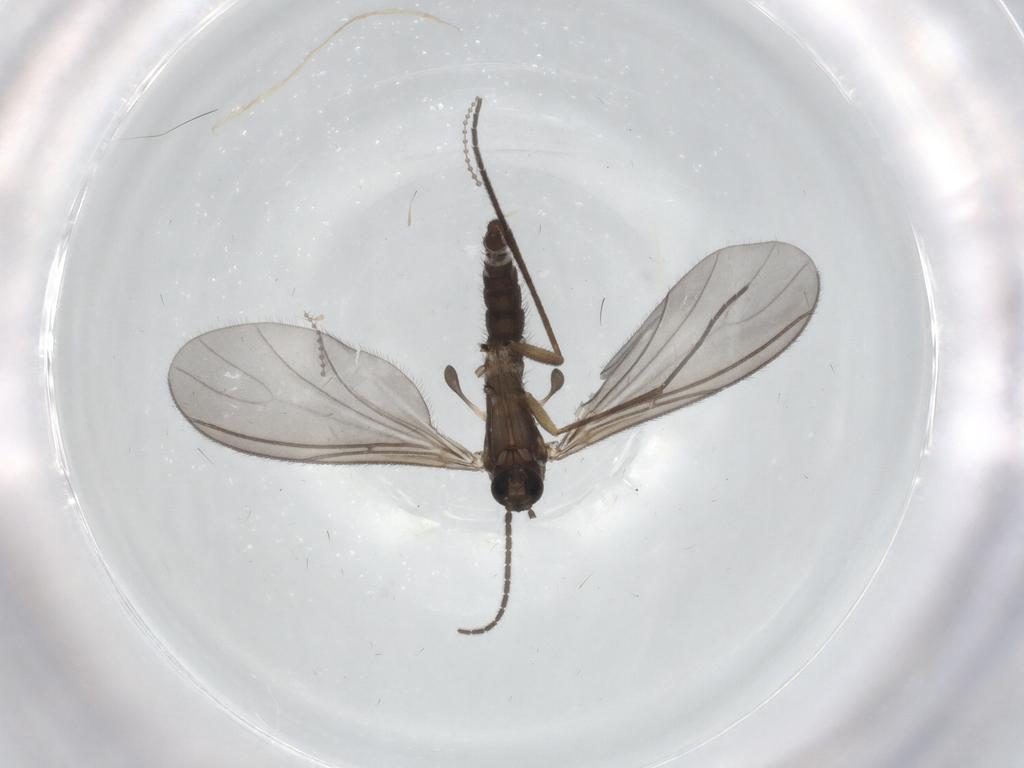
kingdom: Animalia
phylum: Arthropoda
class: Insecta
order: Diptera
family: Sciaridae
